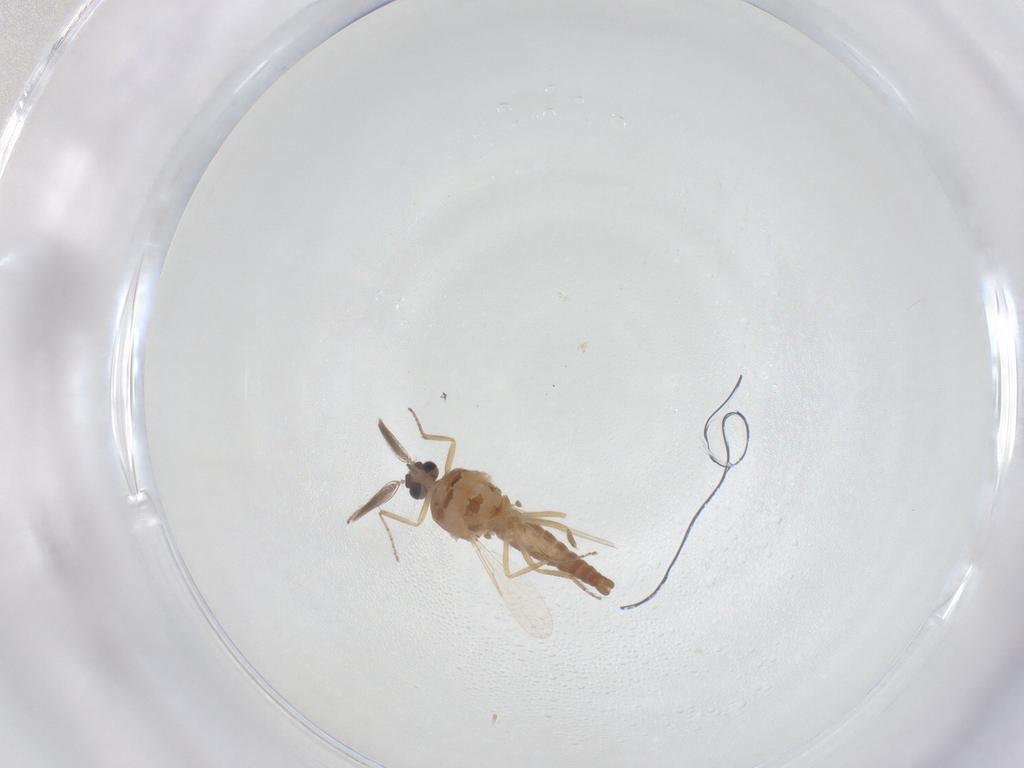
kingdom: Animalia
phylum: Arthropoda
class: Insecta
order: Diptera
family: Ceratopogonidae
